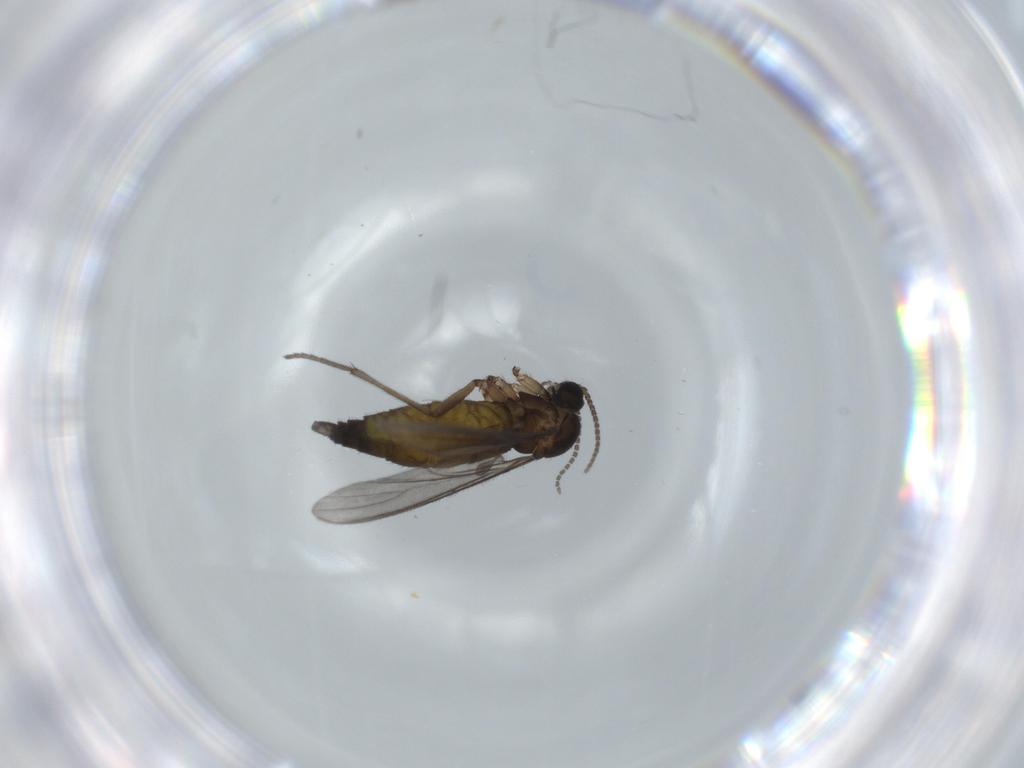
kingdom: Animalia
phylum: Arthropoda
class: Insecta
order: Diptera
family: Sciaridae
